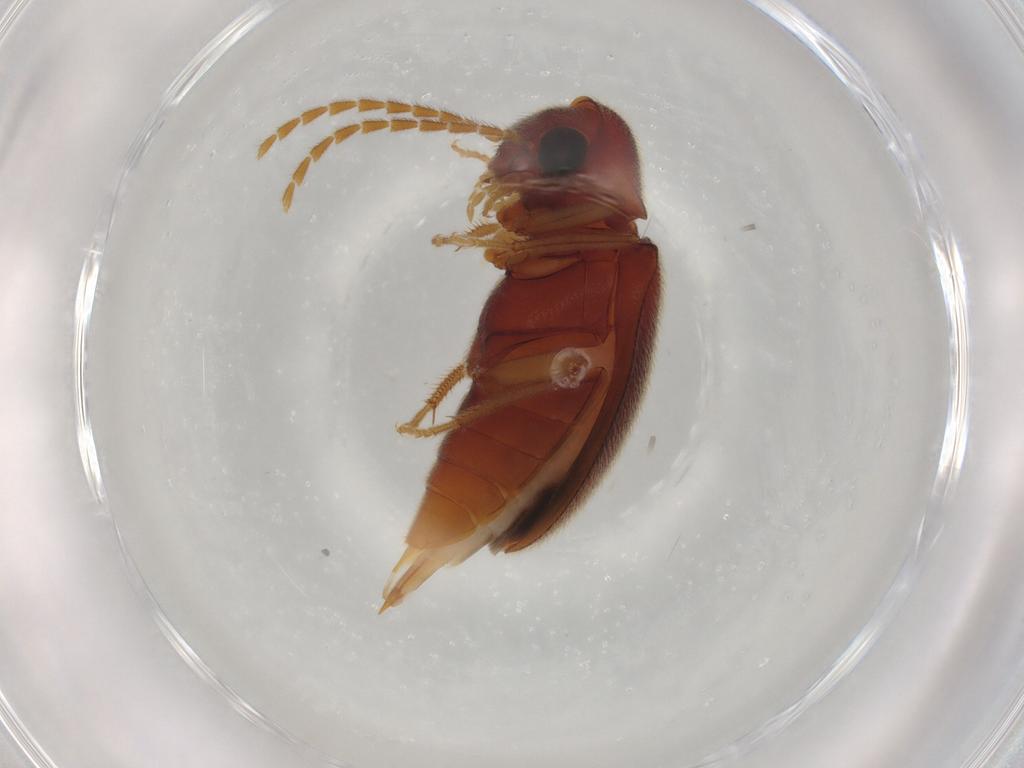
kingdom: Animalia
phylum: Arthropoda
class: Insecta
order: Coleoptera
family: Ptilodactylidae
